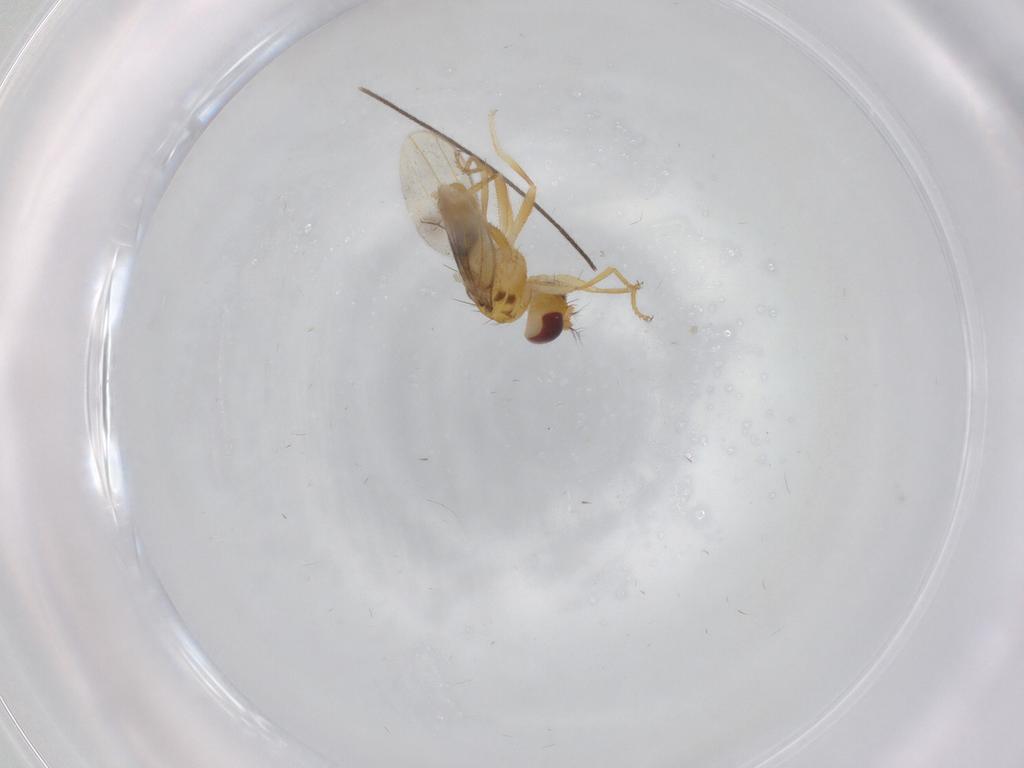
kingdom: Animalia
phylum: Arthropoda
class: Insecta
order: Diptera
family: Periscelididae
